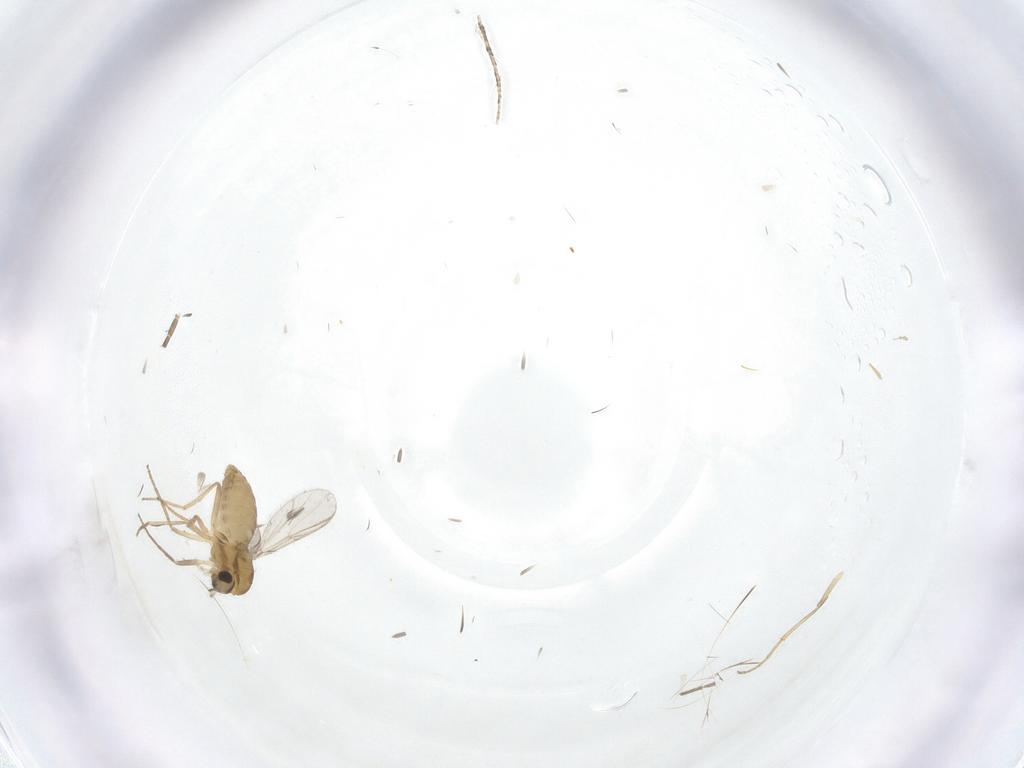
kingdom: Animalia
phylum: Arthropoda
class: Insecta
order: Diptera
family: Chironomidae
